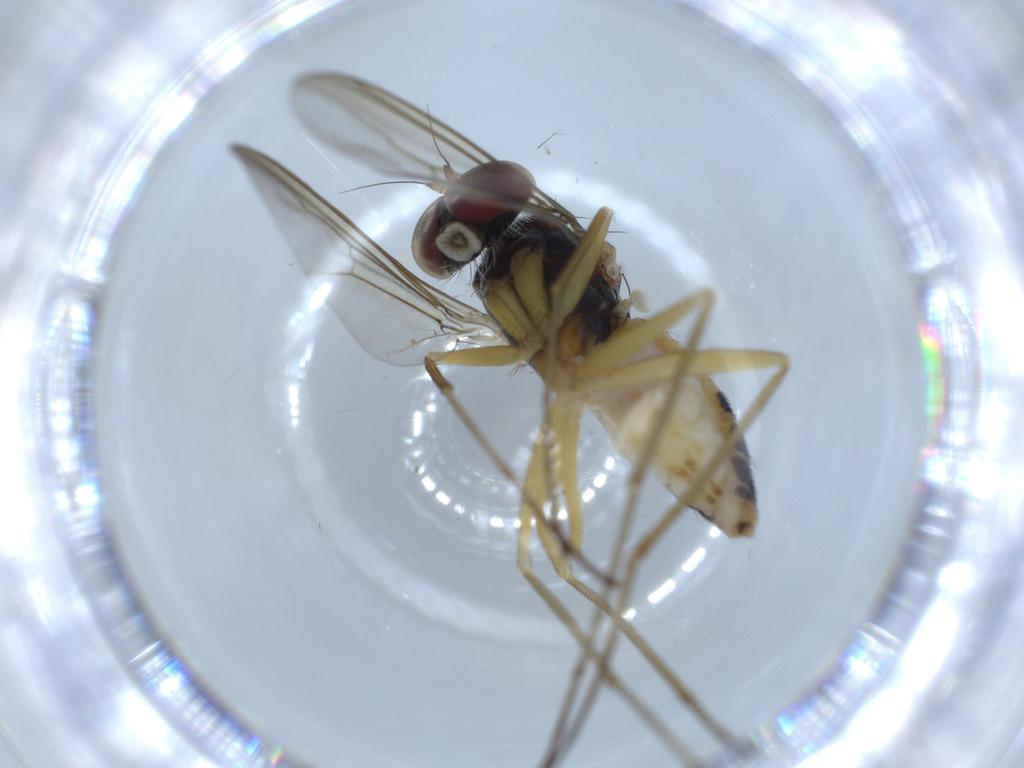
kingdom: Animalia
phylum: Arthropoda
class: Insecta
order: Diptera
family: Dolichopodidae
